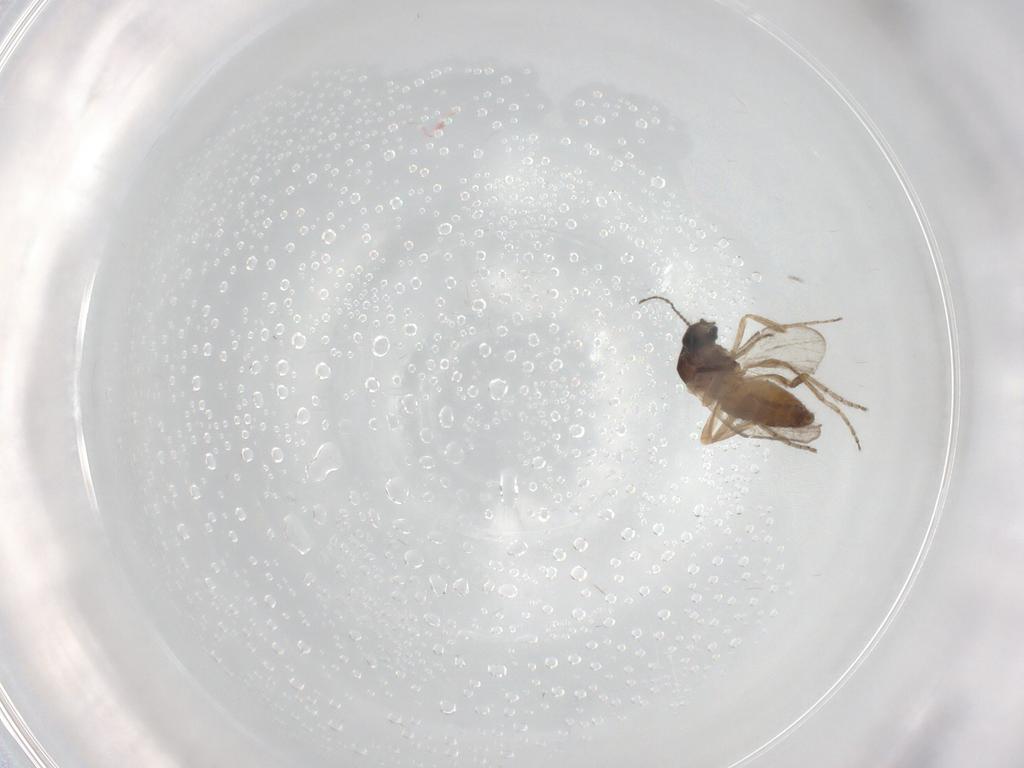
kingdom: Animalia
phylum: Arthropoda
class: Insecta
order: Diptera
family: Ceratopogonidae
